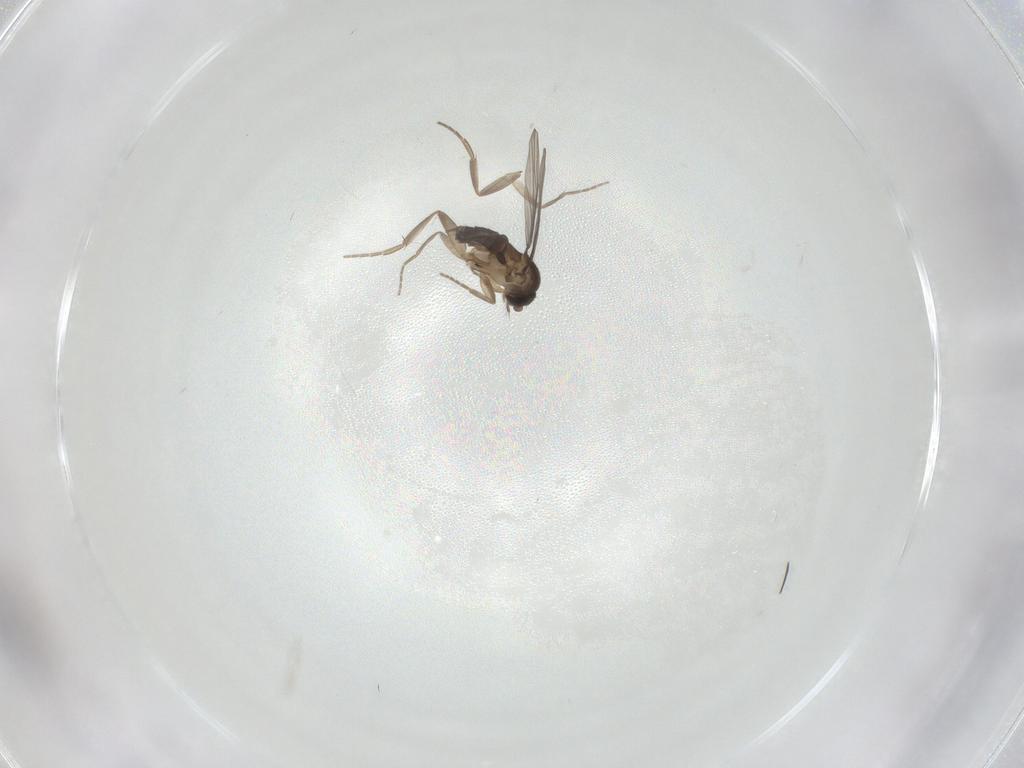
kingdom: Animalia
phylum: Arthropoda
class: Insecta
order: Diptera
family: Phoridae
